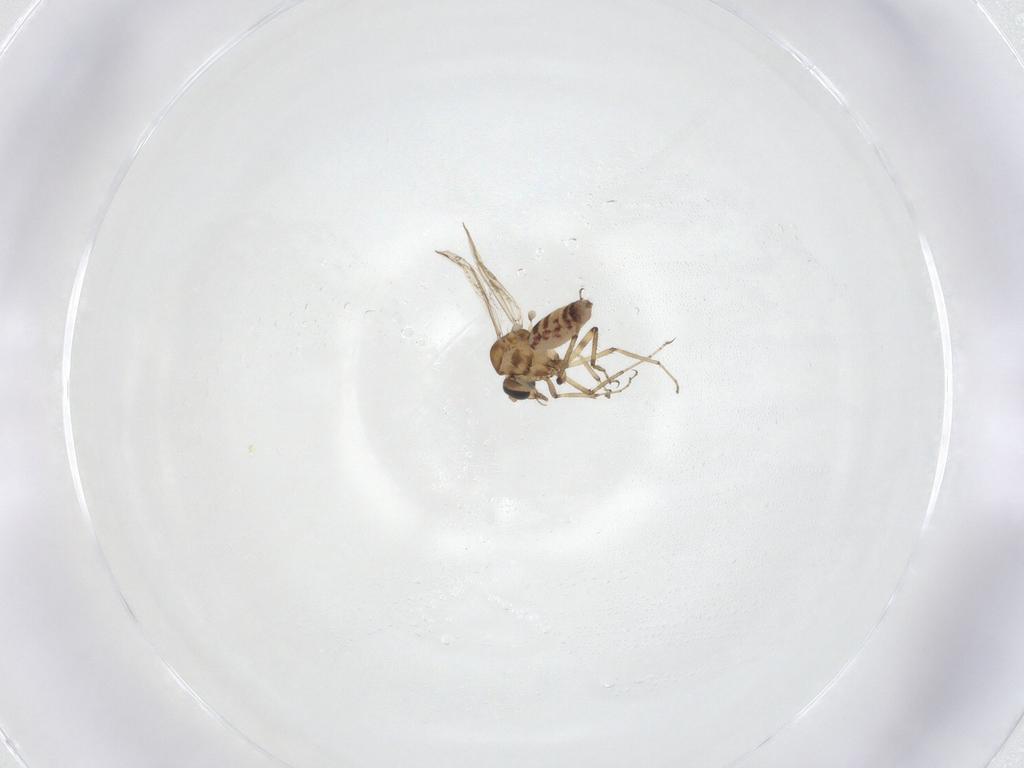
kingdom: Animalia
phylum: Arthropoda
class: Insecta
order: Diptera
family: Ceratopogonidae
